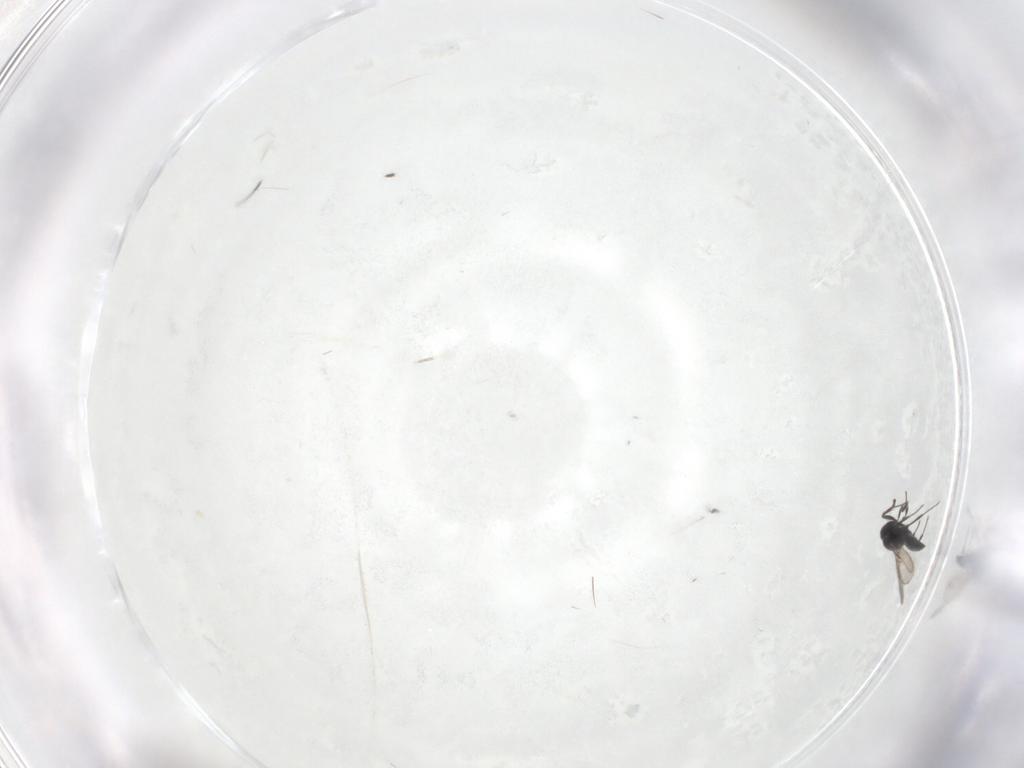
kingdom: Animalia
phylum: Arthropoda
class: Insecta
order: Hymenoptera
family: Scelionidae
